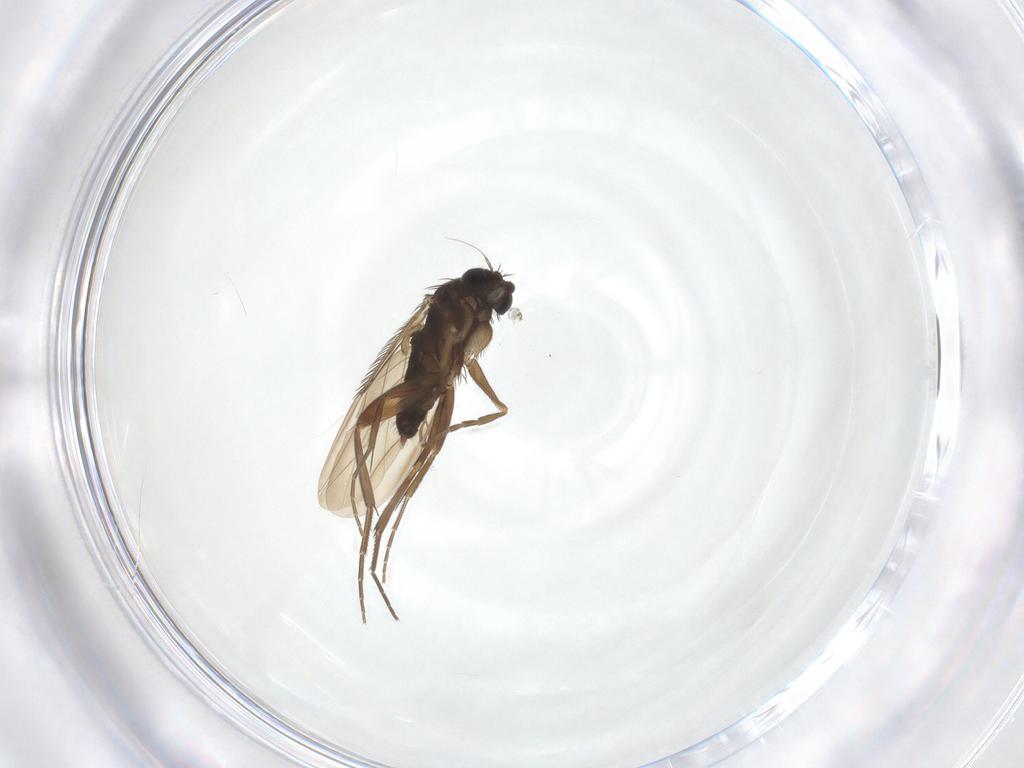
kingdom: Animalia
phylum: Arthropoda
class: Insecta
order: Diptera
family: Phoridae
